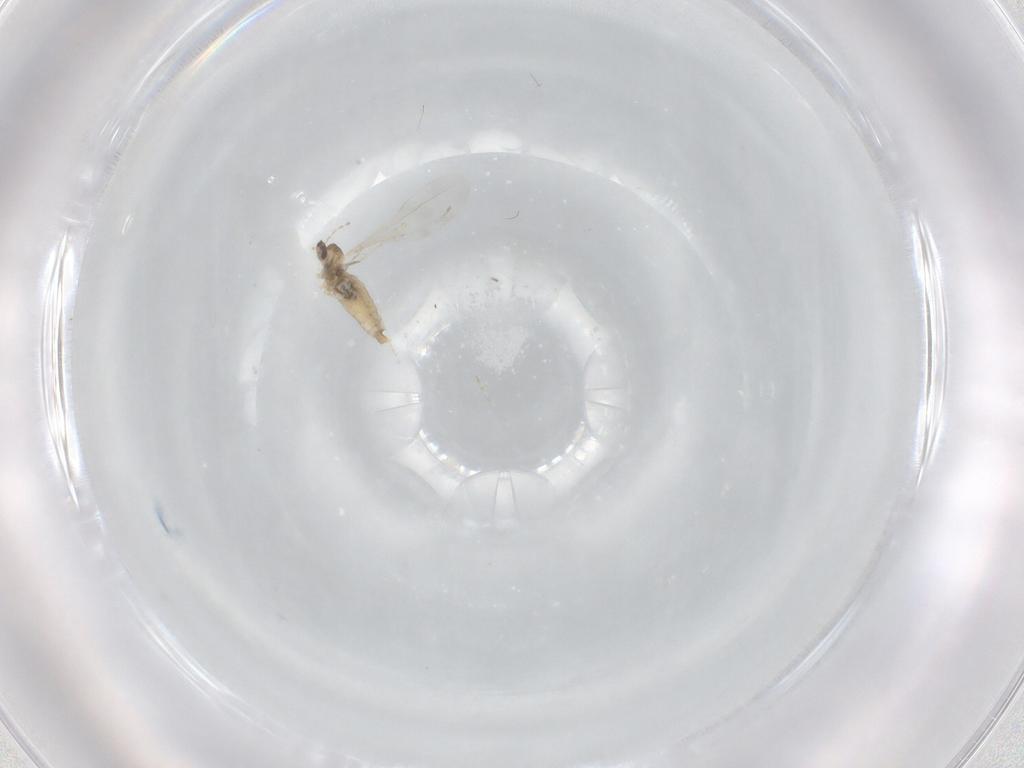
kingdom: Animalia
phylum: Arthropoda
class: Insecta
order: Diptera
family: Cecidomyiidae
